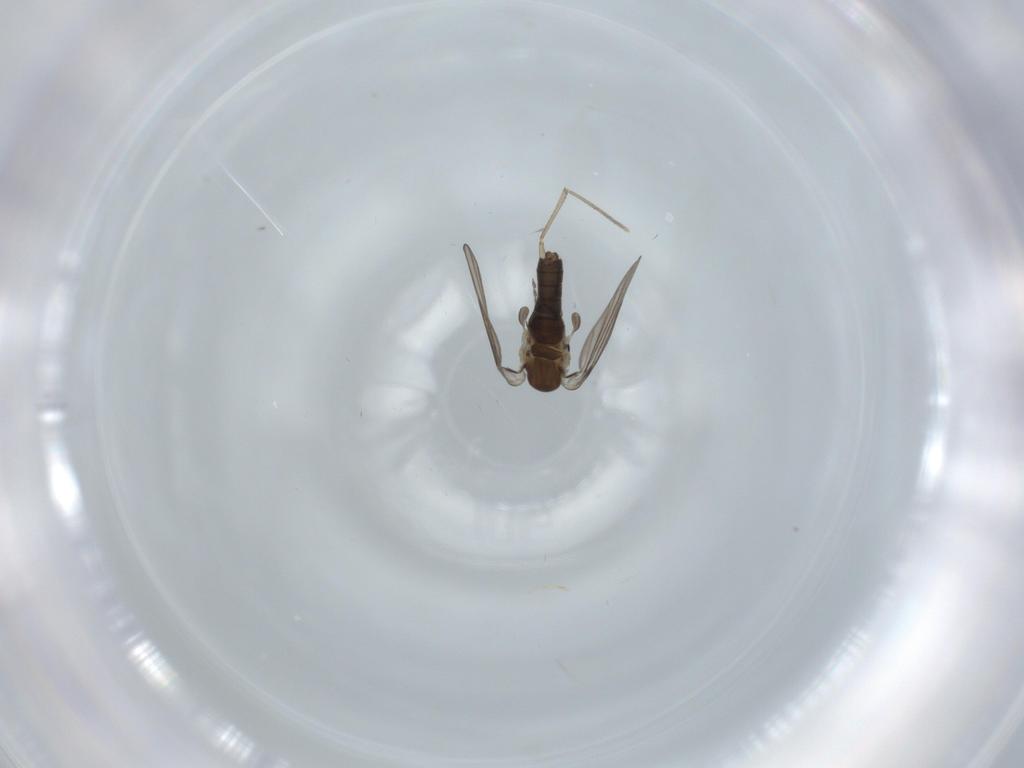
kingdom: Animalia
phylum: Arthropoda
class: Insecta
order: Diptera
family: Psychodidae
